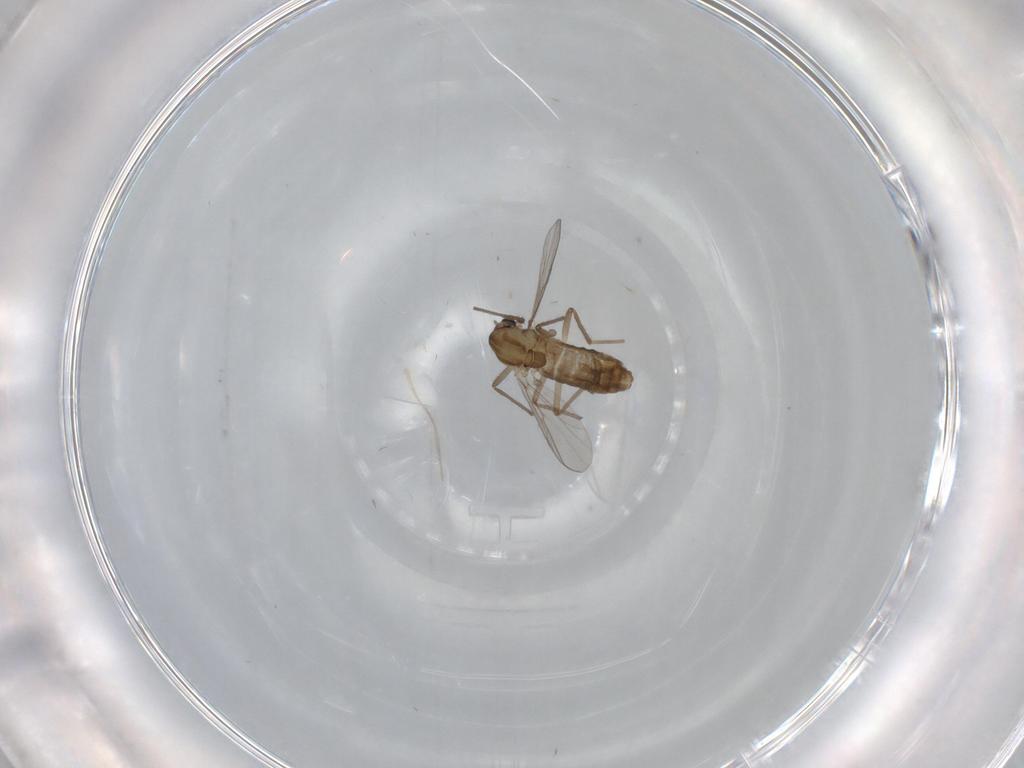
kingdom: Animalia
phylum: Arthropoda
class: Insecta
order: Diptera
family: Chironomidae
